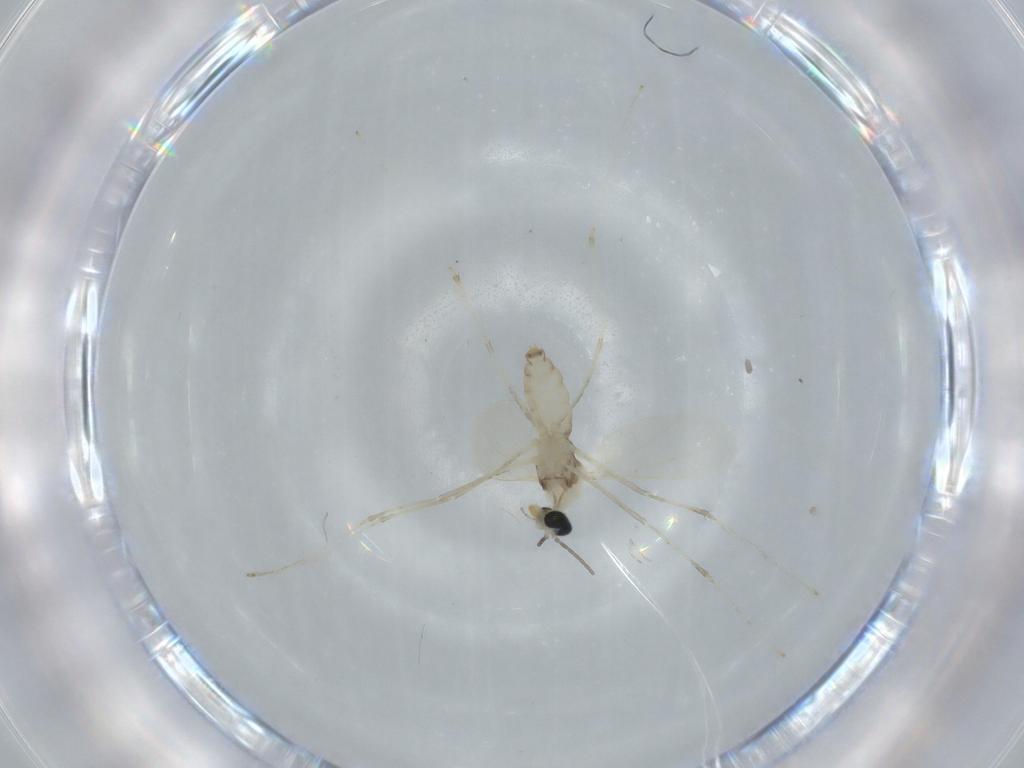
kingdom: Animalia
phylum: Arthropoda
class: Insecta
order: Diptera
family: Cecidomyiidae
